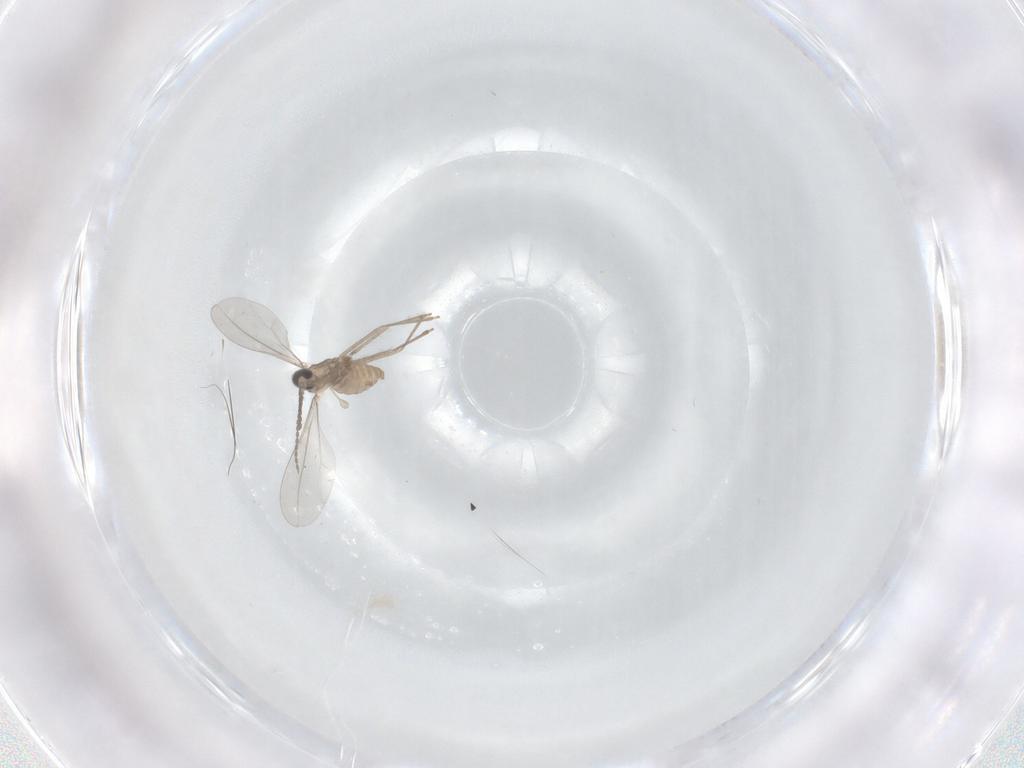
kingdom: Animalia
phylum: Arthropoda
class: Insecta
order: Diptera
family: Cecidomyiidae
